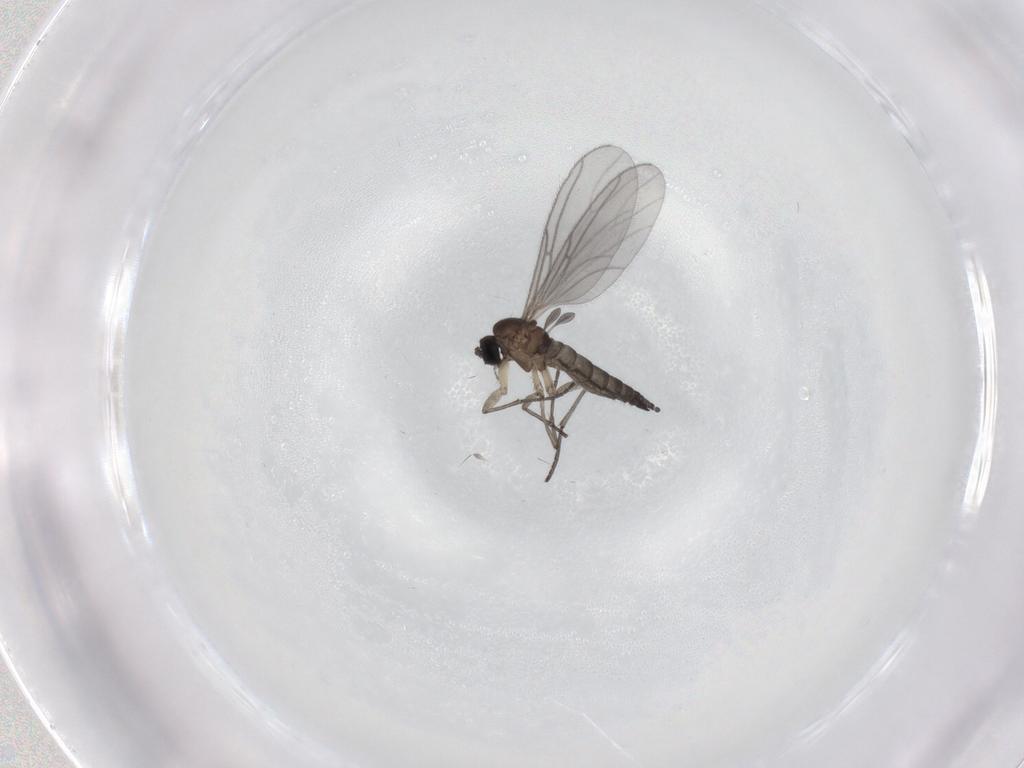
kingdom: Animalia
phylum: Arthropoda
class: Insecta
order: Diptera
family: Phoridae
